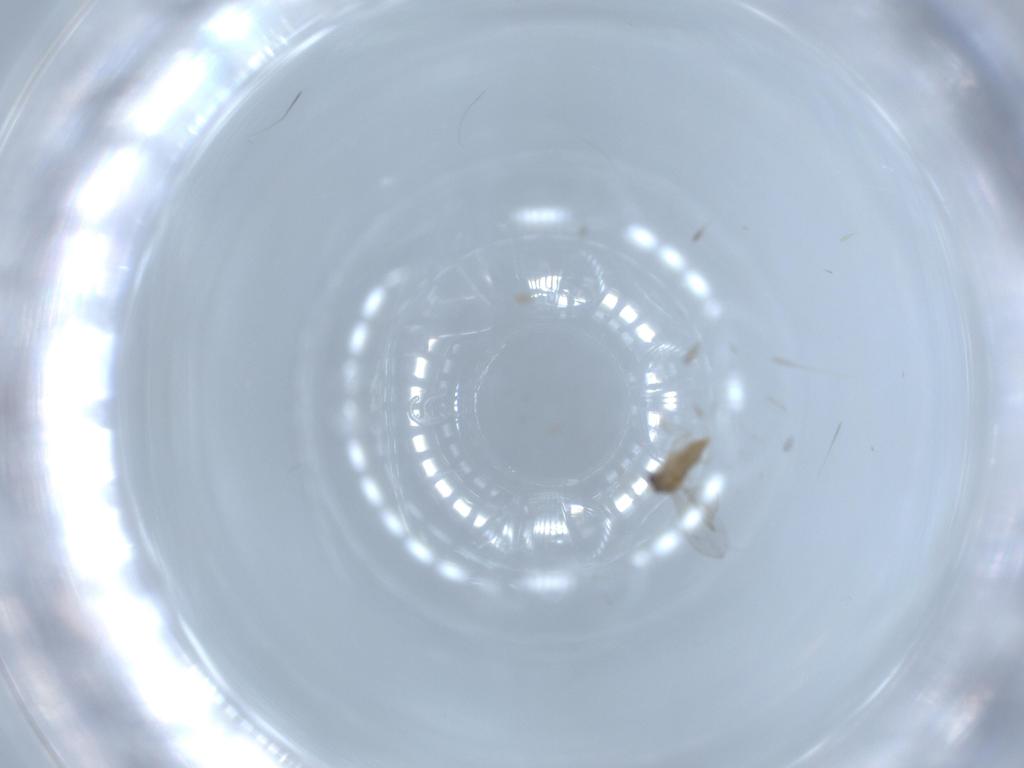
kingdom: Animalia
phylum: Arthropoda
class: Insecta
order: Diptera
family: Cecidomyiidae
